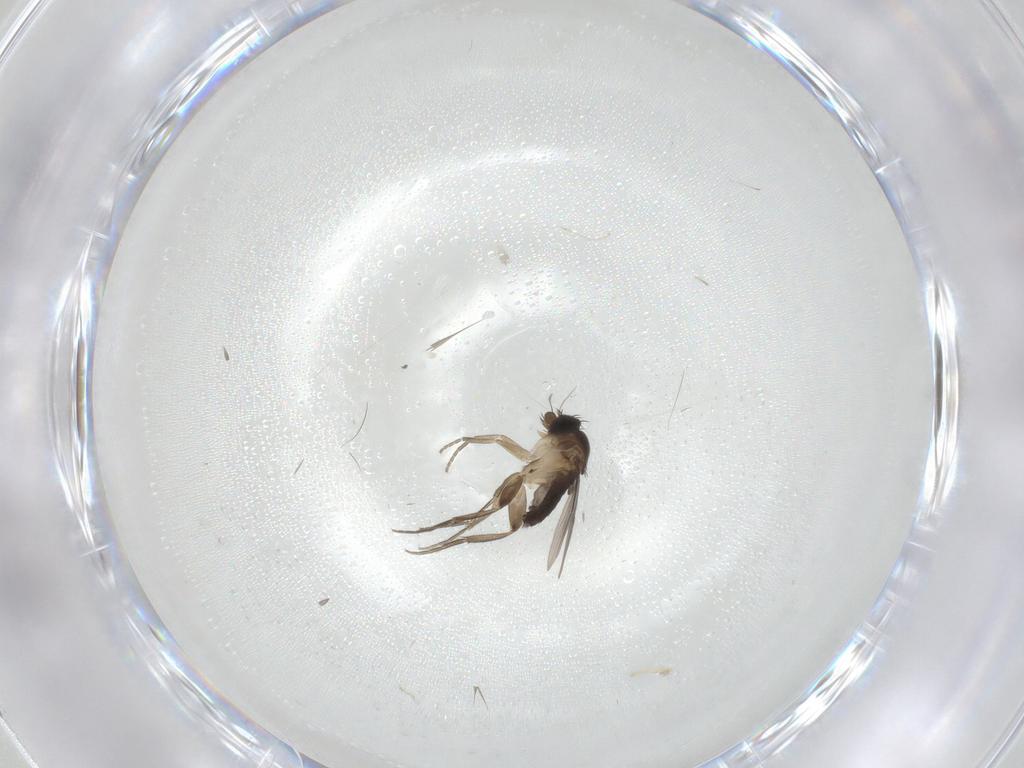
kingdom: Animalia
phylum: Arthropoda
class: Insecta
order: Diptera
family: Phoridae
